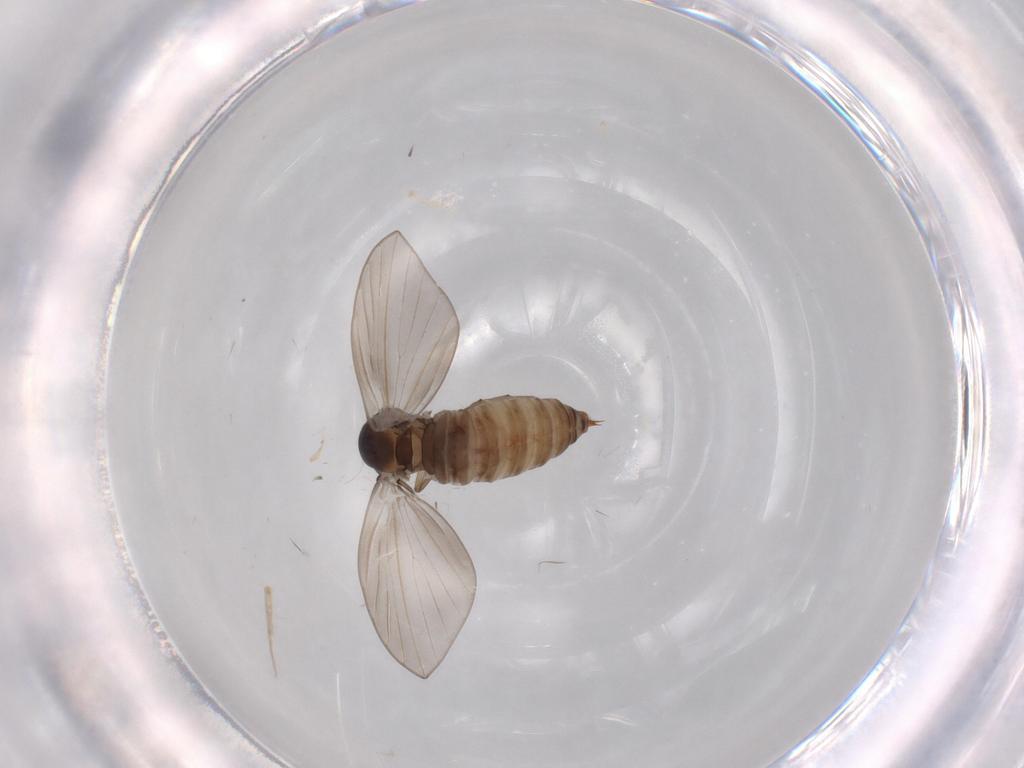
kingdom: Animalia
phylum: Arthropoda
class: Insecta
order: Diptera
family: Psychodidae
